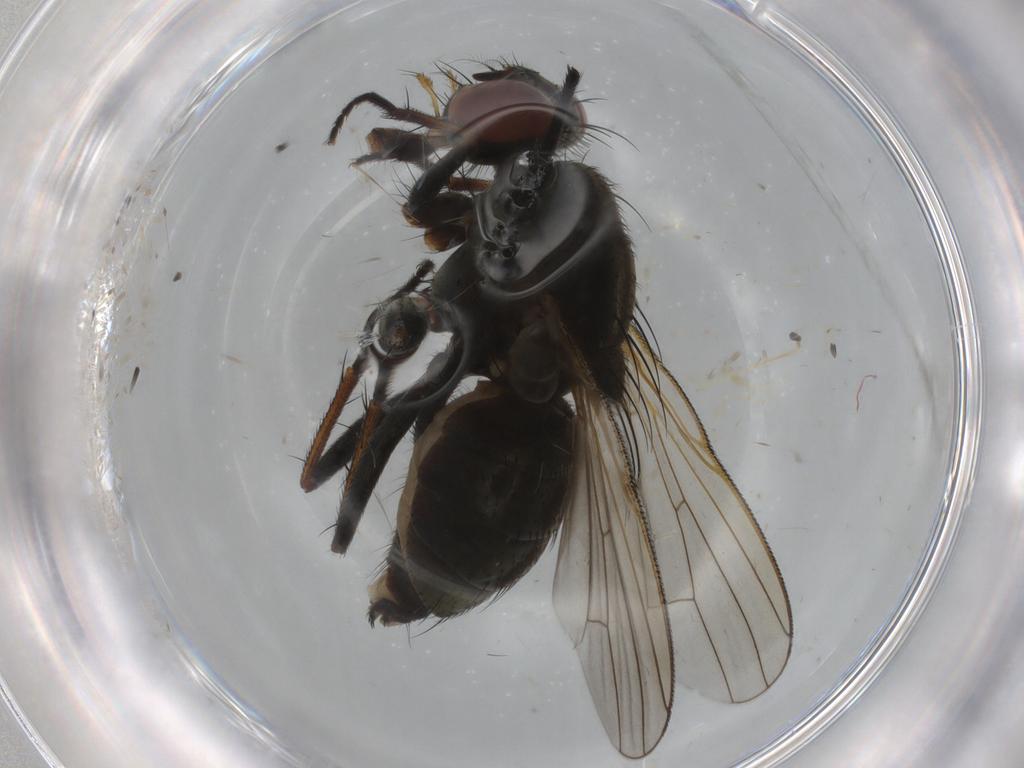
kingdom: Animalia
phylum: Arthropoda
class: Insecta
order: Diptera
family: Muscidae
